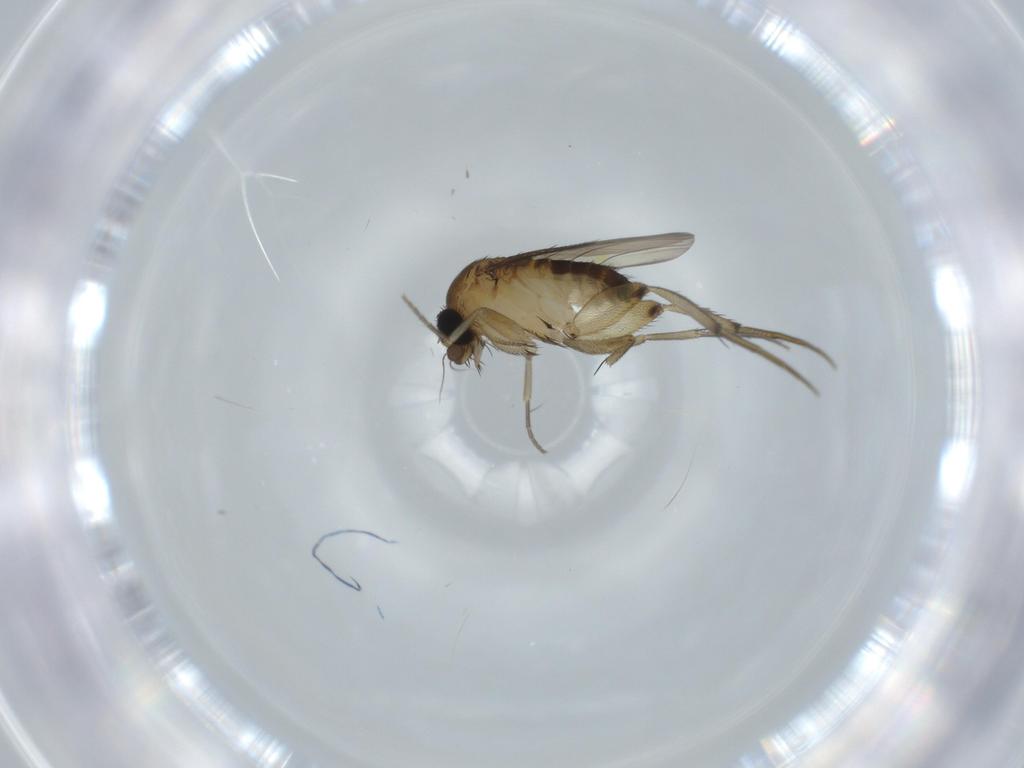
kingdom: Animalia
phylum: Arthropoda
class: Insecta
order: Diptera
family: Phoridae
